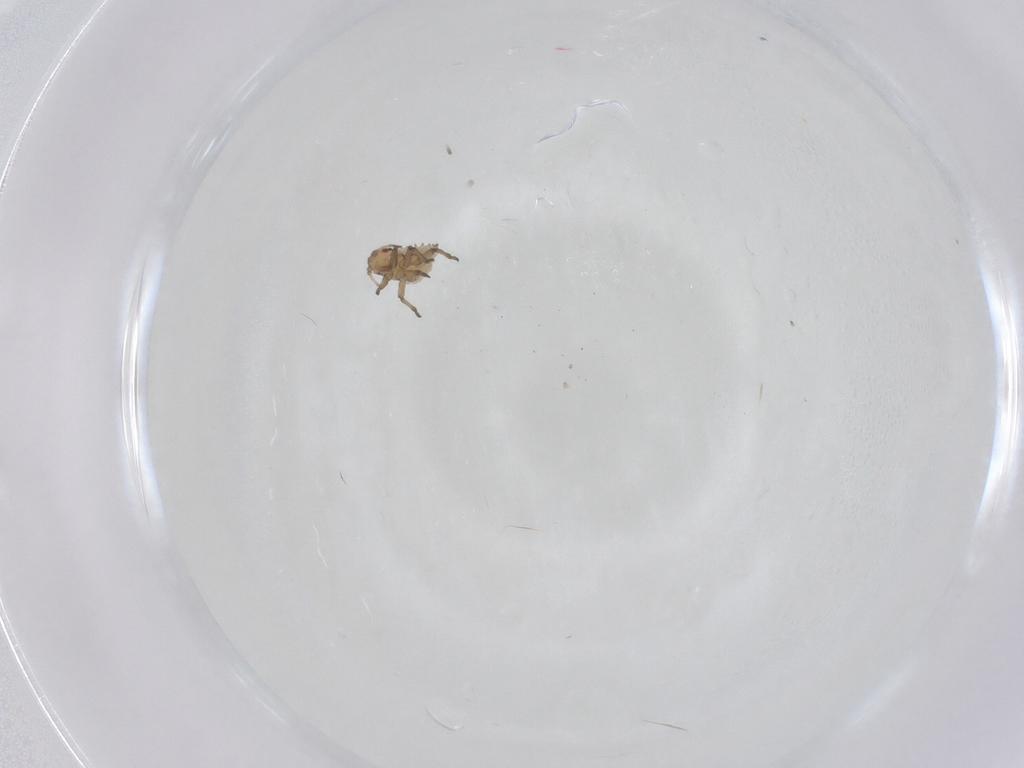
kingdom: Animalia
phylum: Arthropoda
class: Insecta
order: Hemiptera
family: Aphididae
